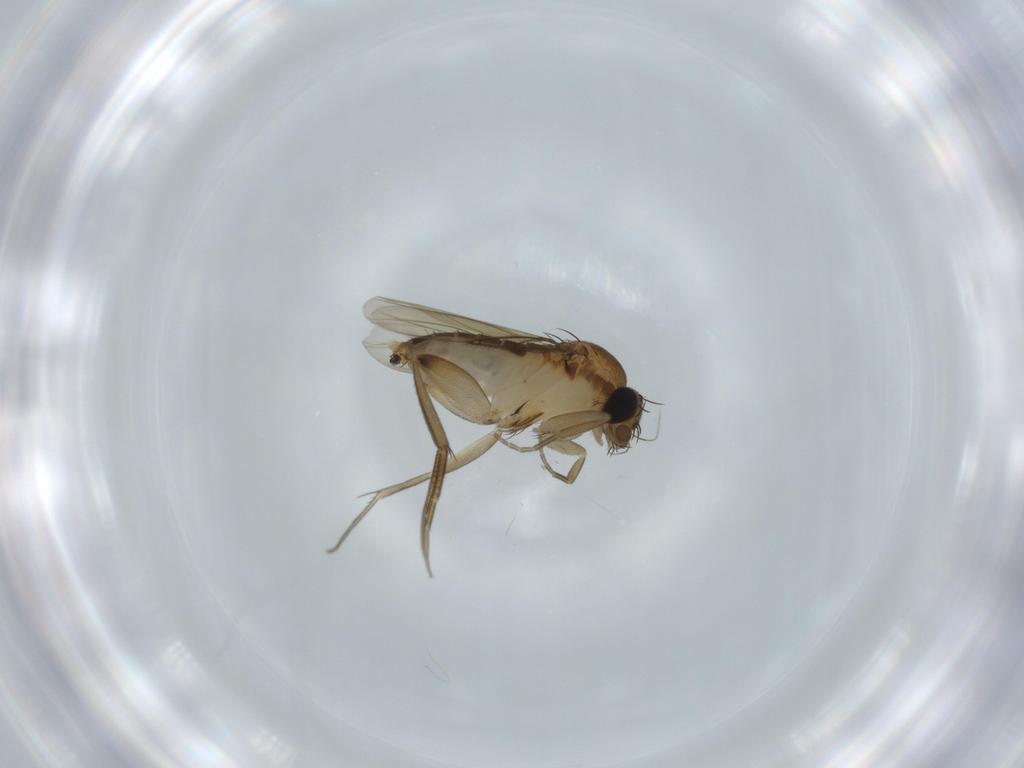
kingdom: Animalia
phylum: Arthropoda
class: Insecta
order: Diptera
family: Phoridae
